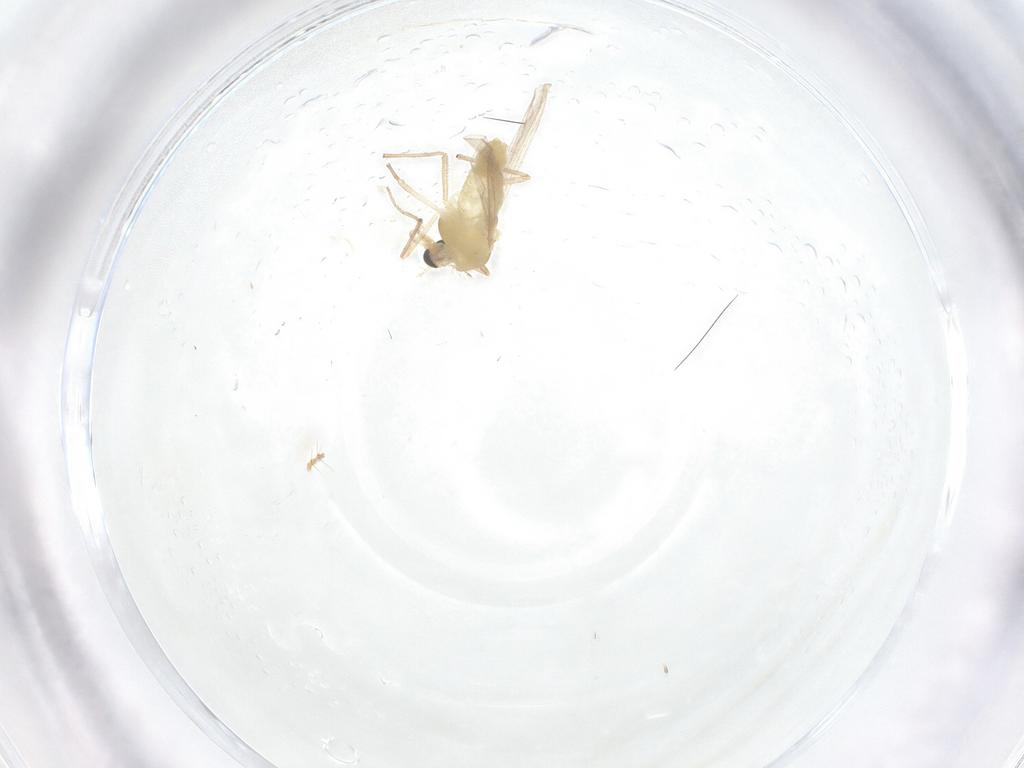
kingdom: Animalia
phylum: Arthropoda
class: Insecta
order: Diptera
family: Chironomidae
